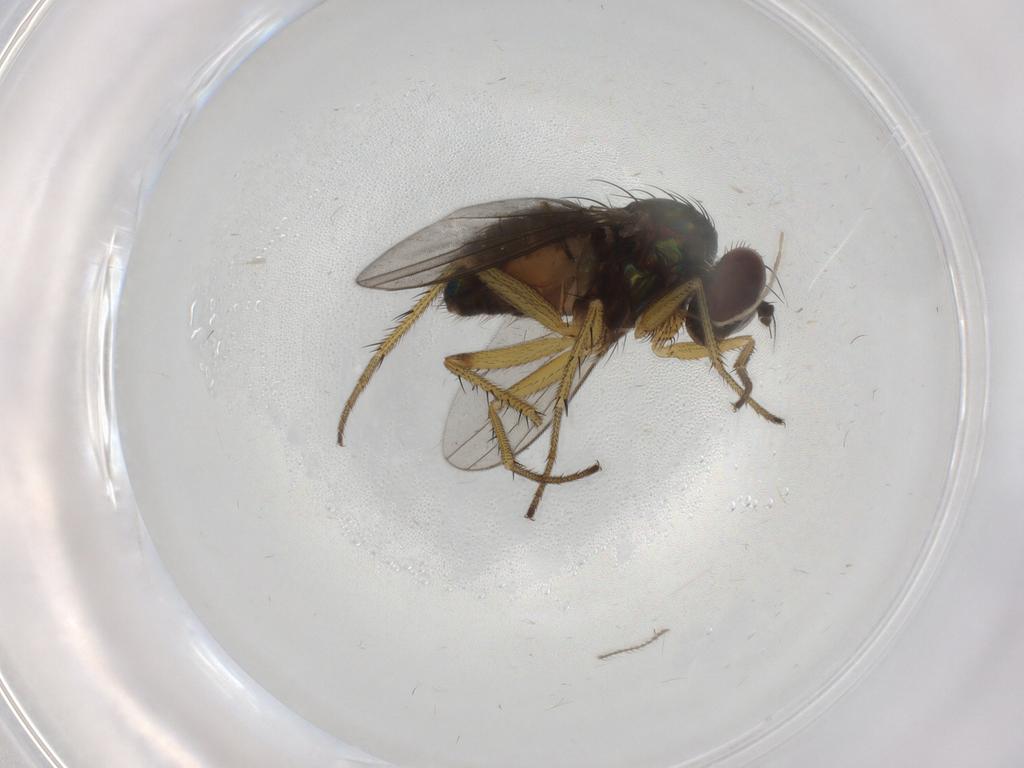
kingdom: Animalia
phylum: Arthropoda
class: Insecta
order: Diptera
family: Dolichopodidae
